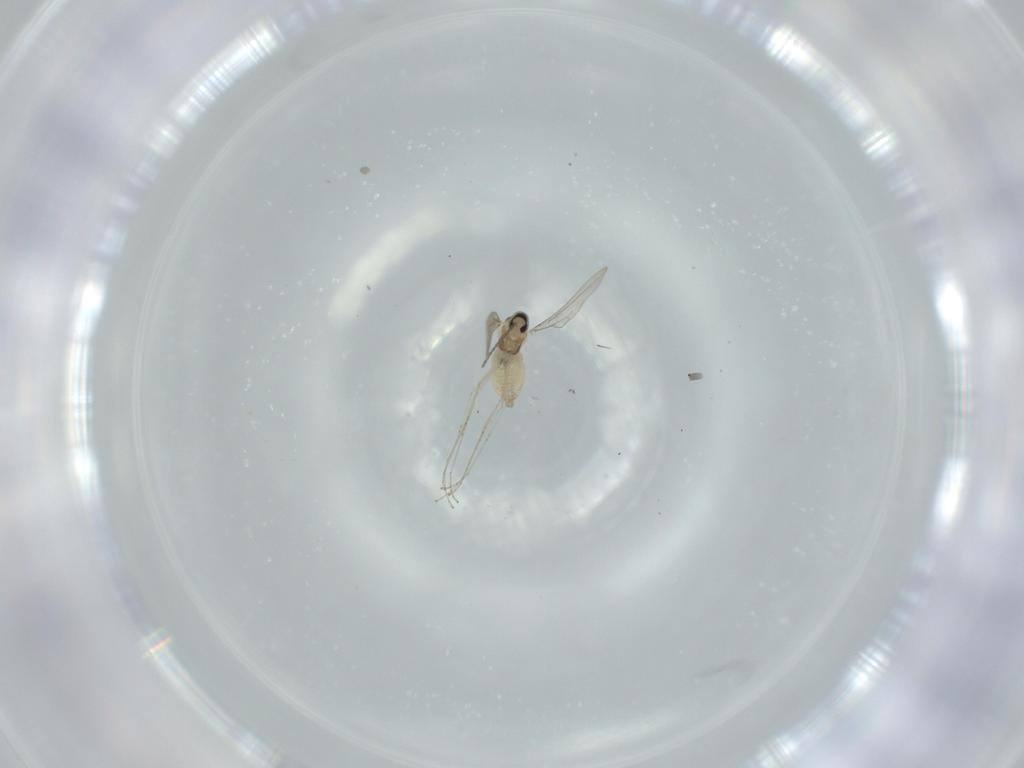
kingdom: Animalia
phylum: Arthropoda
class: Insecta
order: Diptera
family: Cecidomyiidae
